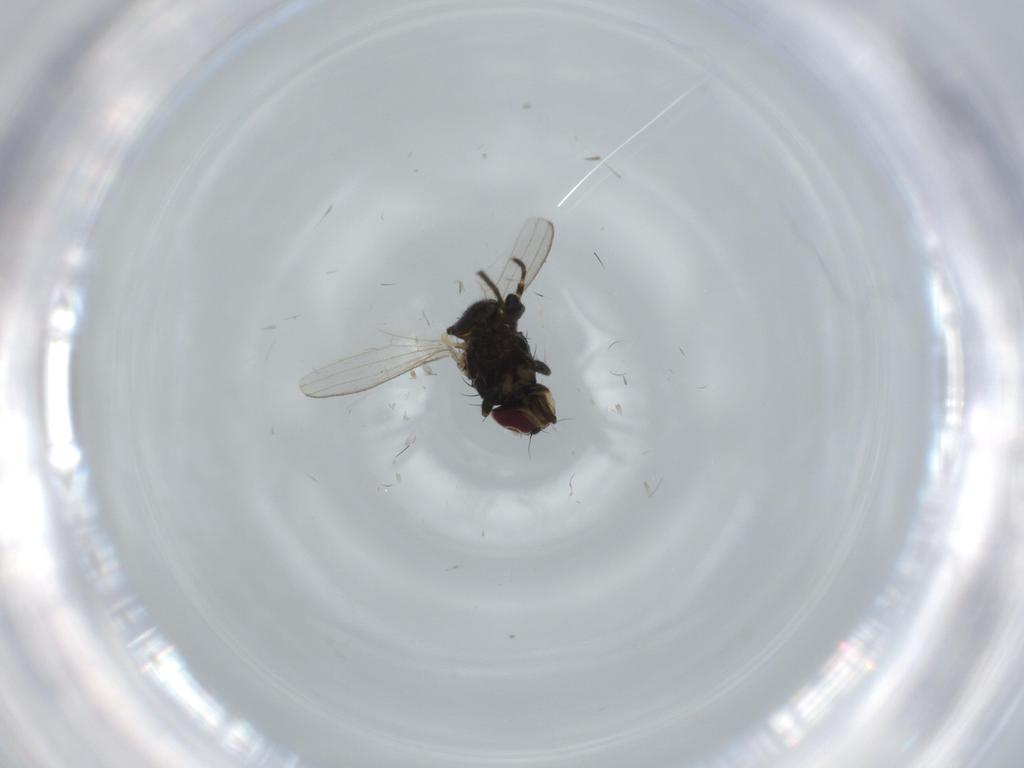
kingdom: Animalia
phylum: Arthropoda
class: Insecta
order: Diptera
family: Milichiidae
